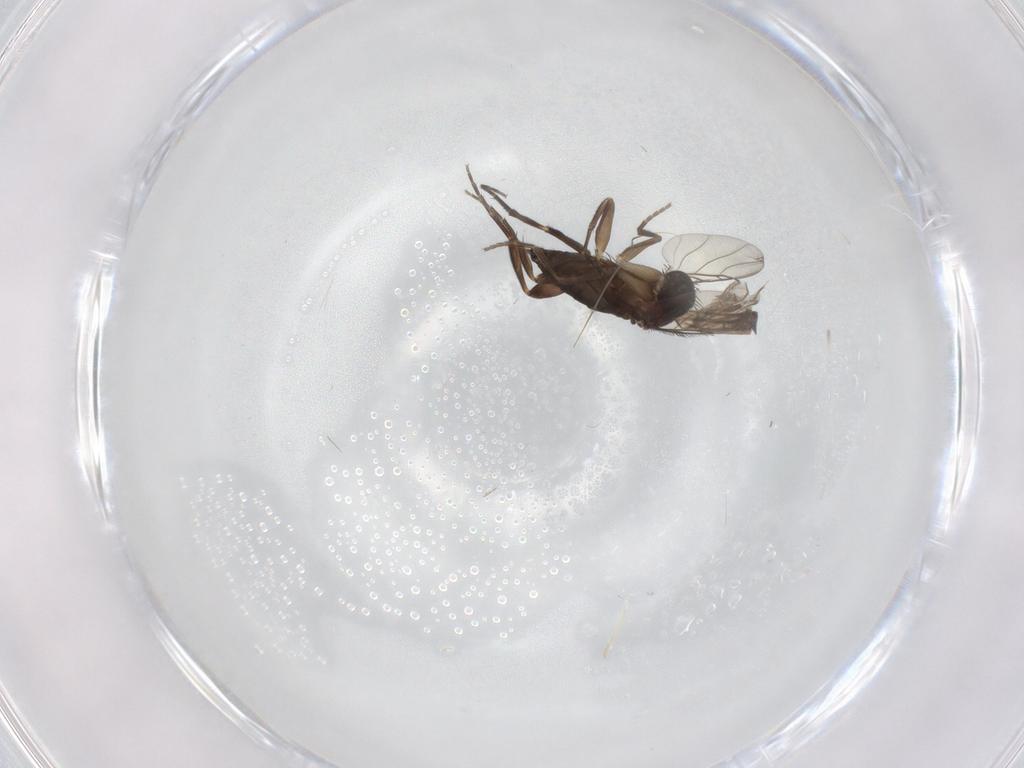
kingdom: Animalia
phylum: Arthropoda
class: Insecta
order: Diptera
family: Phoridae
